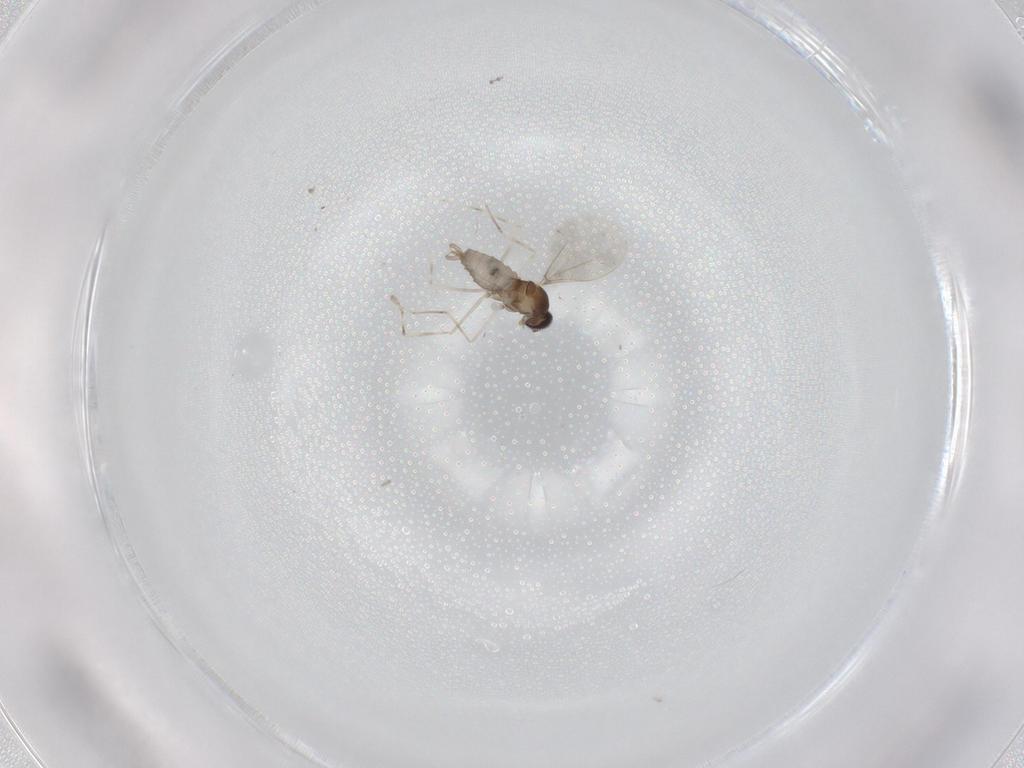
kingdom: Animalia
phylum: Arthropoda
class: Insecta
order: Diptera
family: Cecidomyiidae
